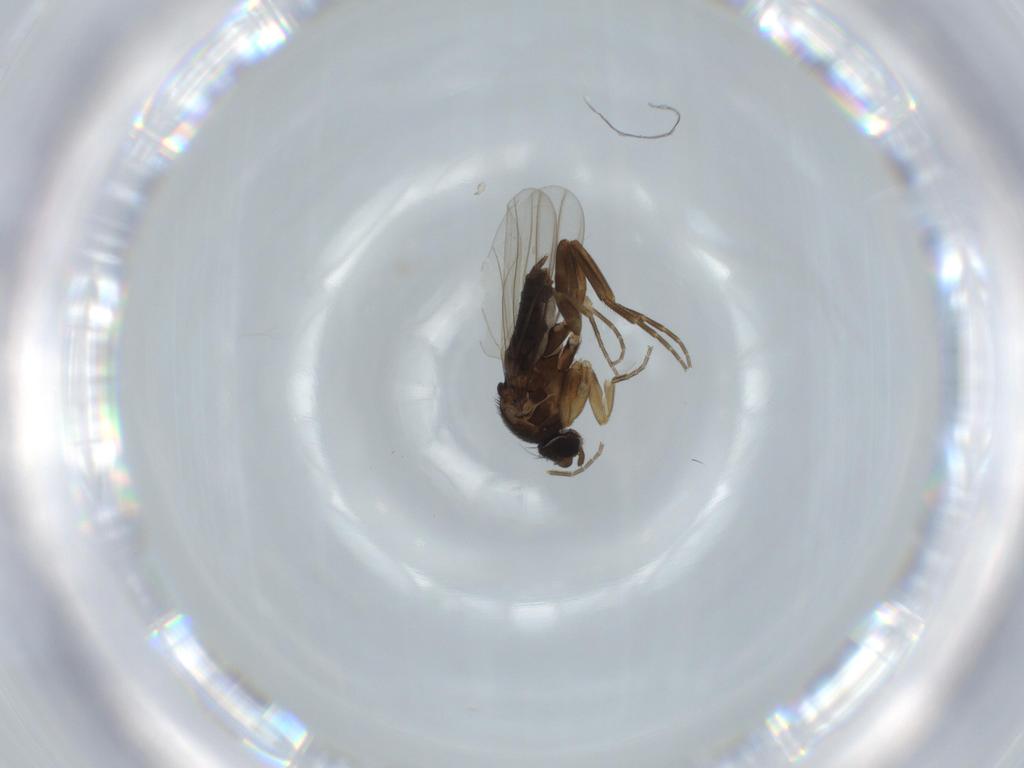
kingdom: Animalia
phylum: Arthropoda
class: Insecta
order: Diptera
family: Phoridae
